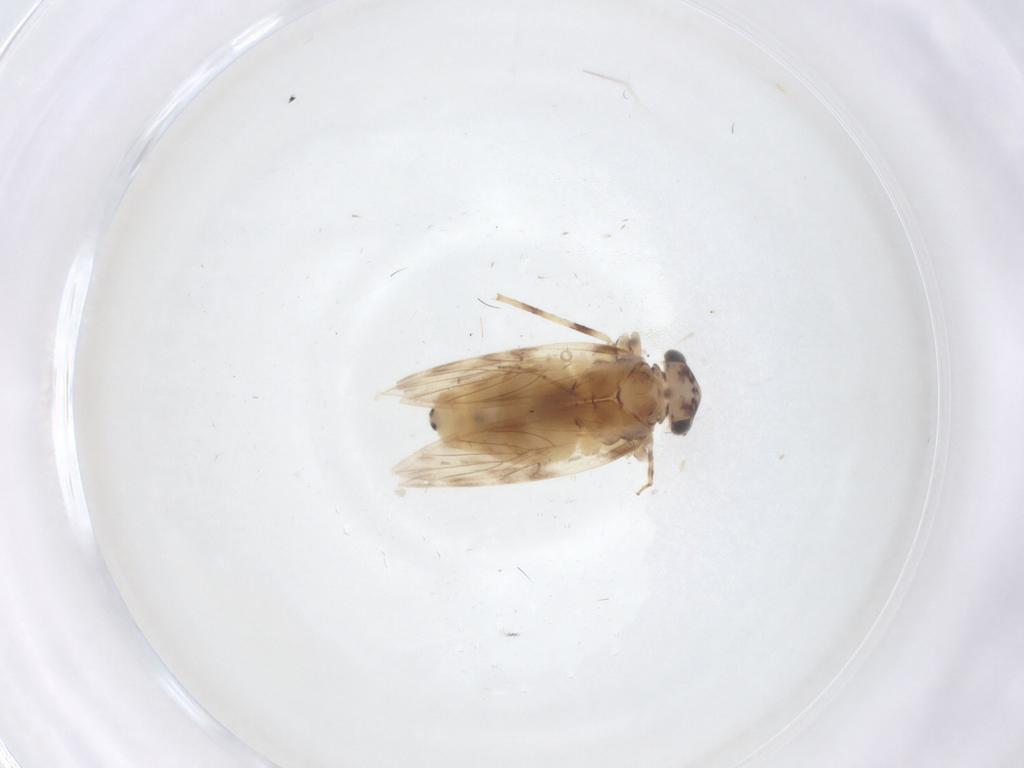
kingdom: Animalia
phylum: Arthropoda
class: Insecta
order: Psocodea
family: Lepidopsocidae
